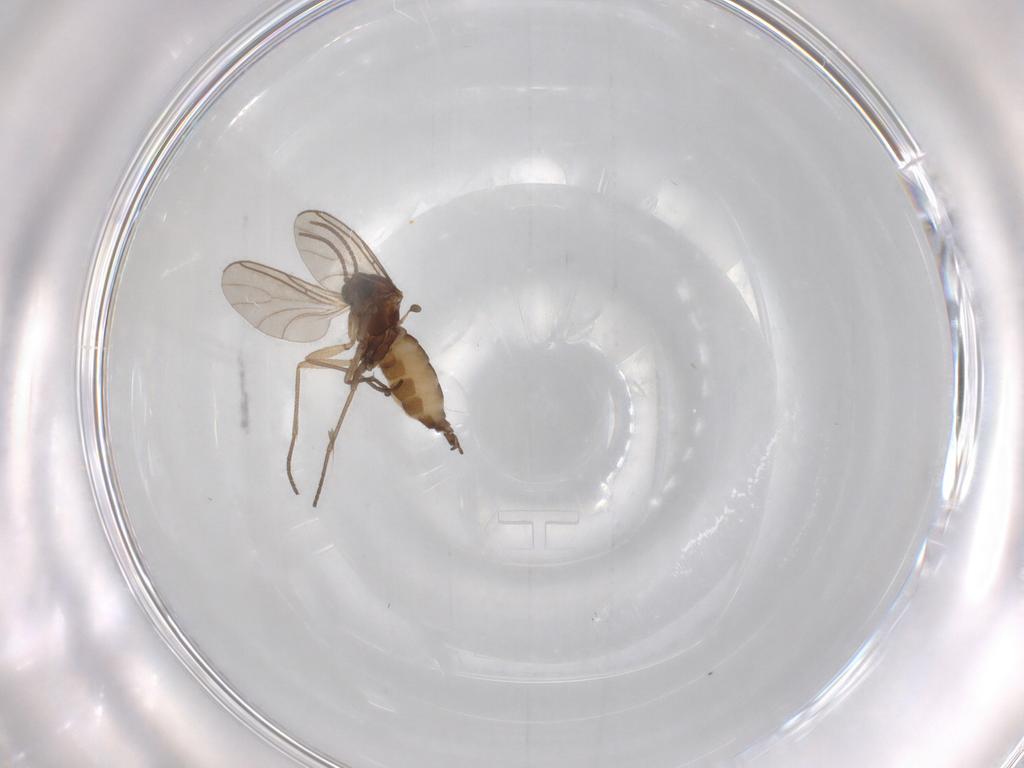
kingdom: Animalia
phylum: Arthropoda
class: Insecta
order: Diptera
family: Sciaridae
